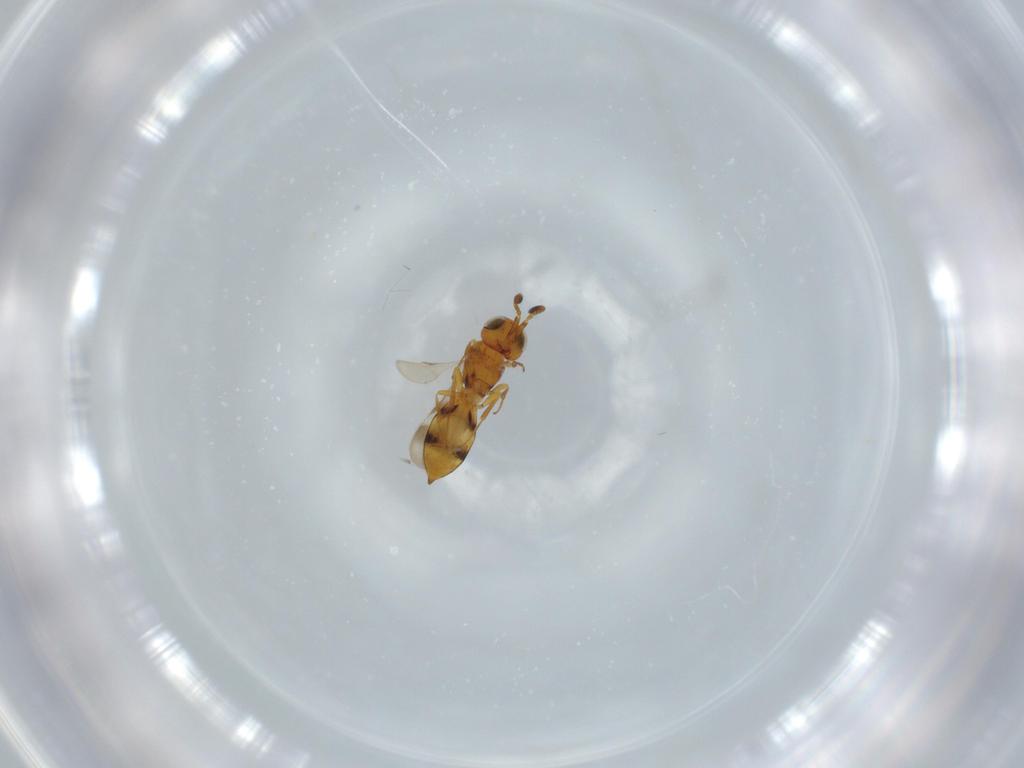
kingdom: Animalia
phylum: Arthropoda
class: Insecta
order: Hymenoptera
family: Scelionidae
